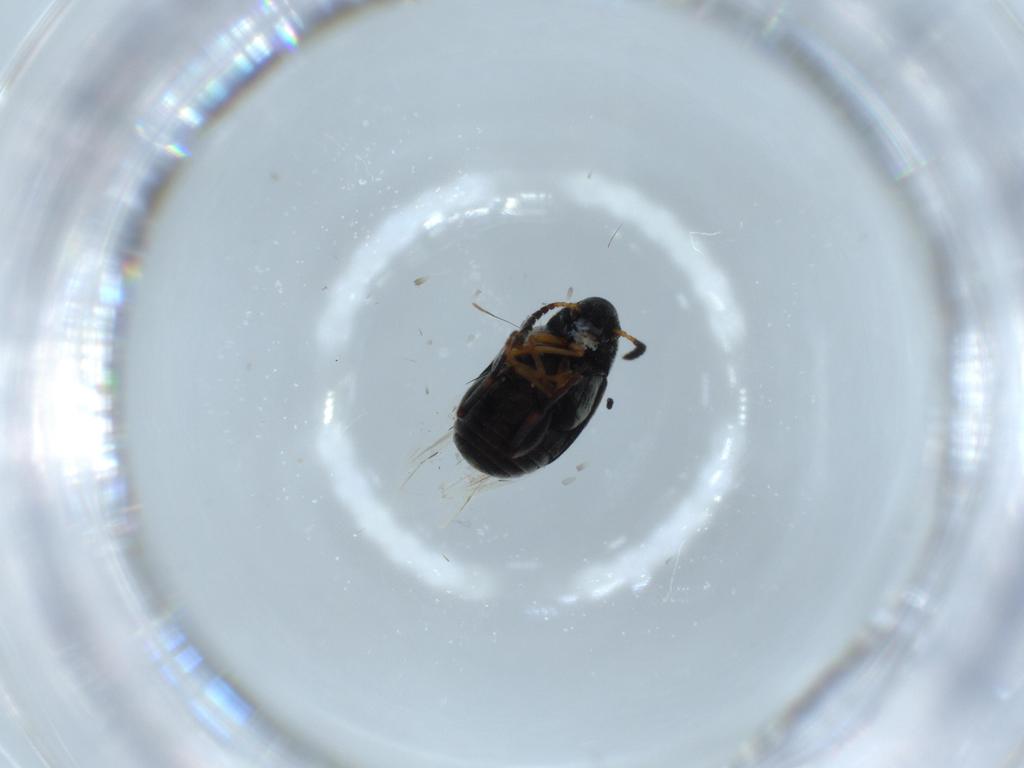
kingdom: Animalia
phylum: Arthropoda
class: Insecta
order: Coleoptera
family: Chrysomelidae
